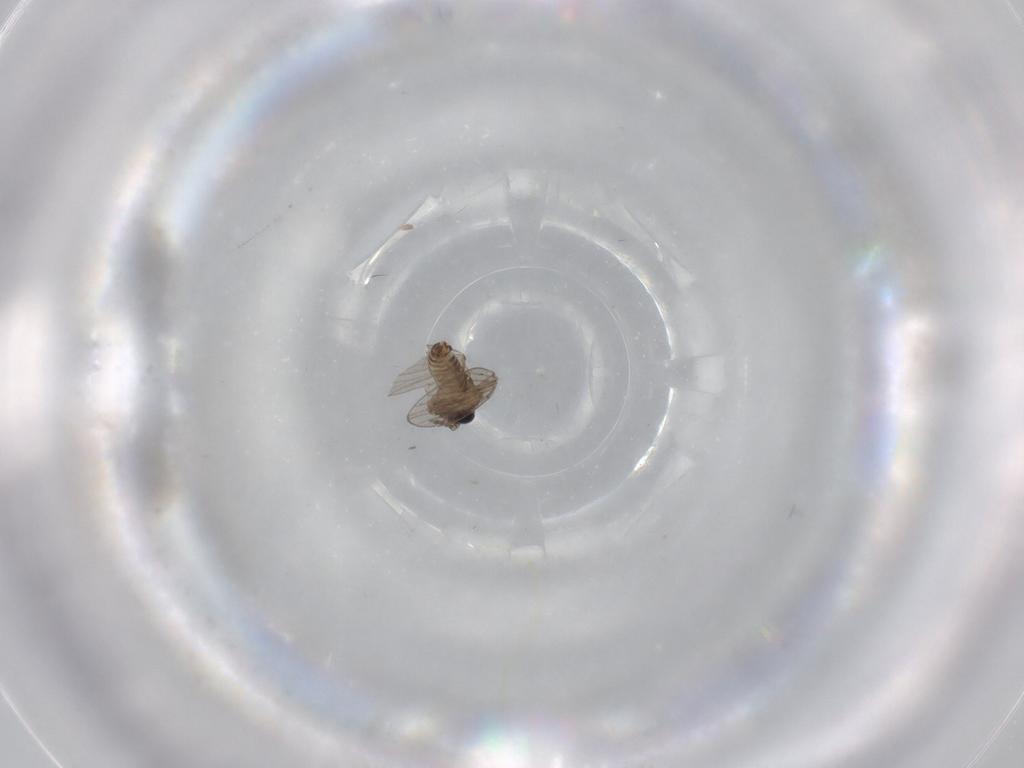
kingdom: Animalia
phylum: Arthropoda
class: Insecta
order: Diptera
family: Psychodidae
